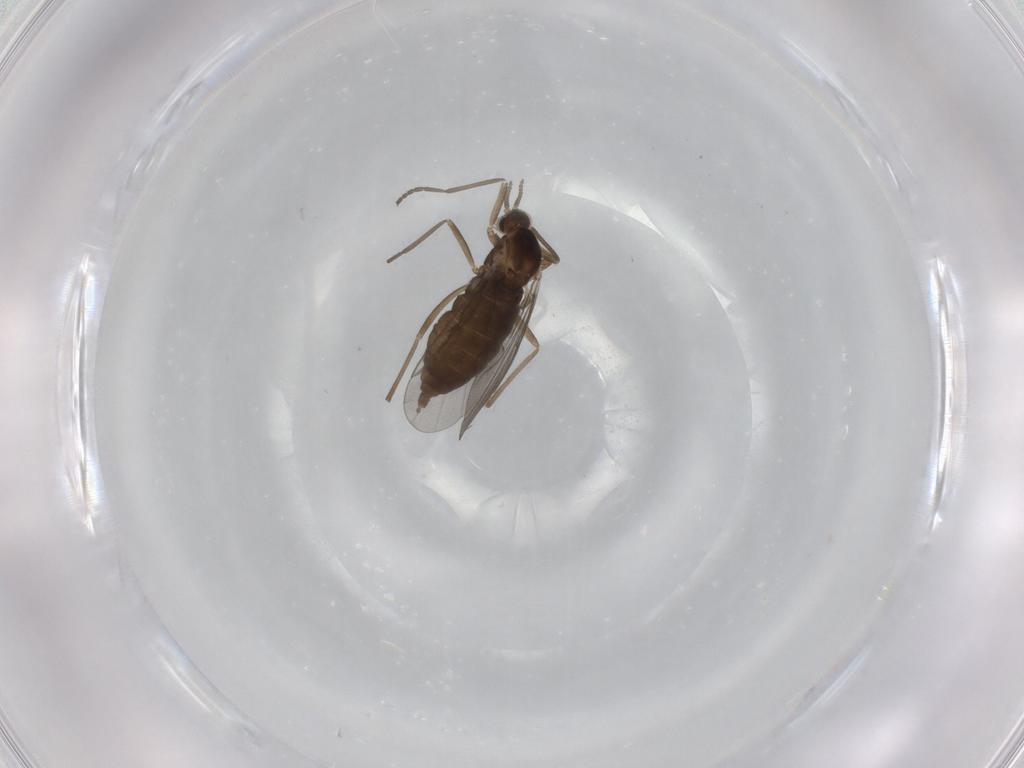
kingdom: Animalia
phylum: Arthropoda
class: Insecta
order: Diptera
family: Cecidomyiidae
